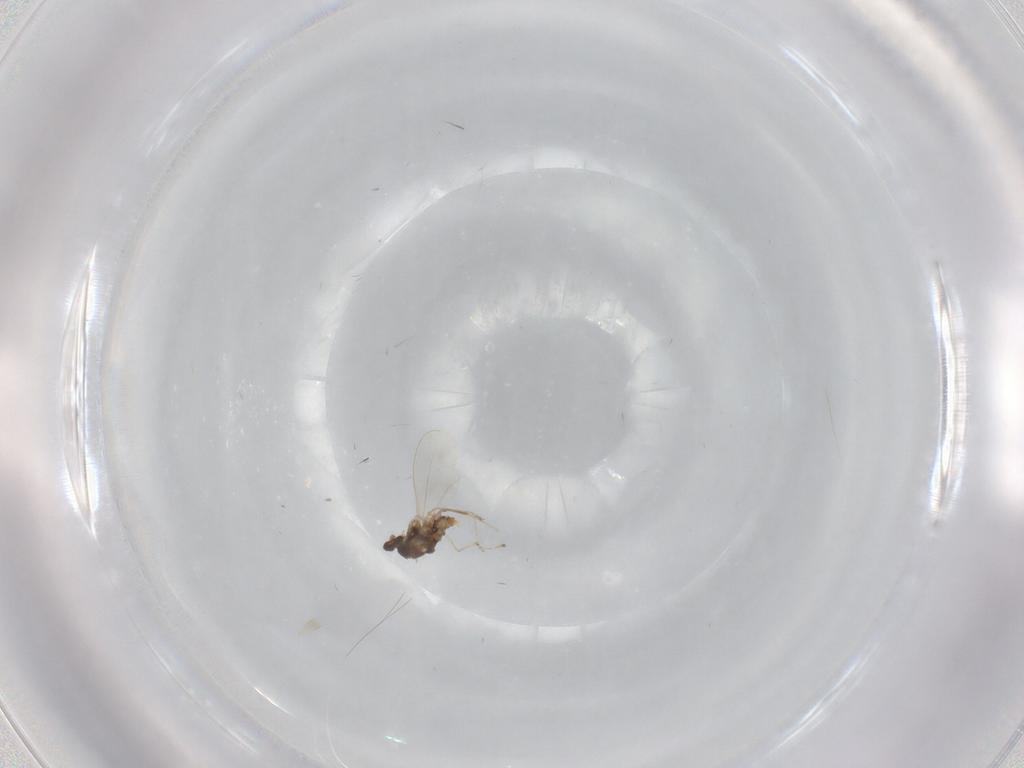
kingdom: Animalia
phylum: Arthropoda
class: Insecta
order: Diptera
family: Cecidomyiidae
